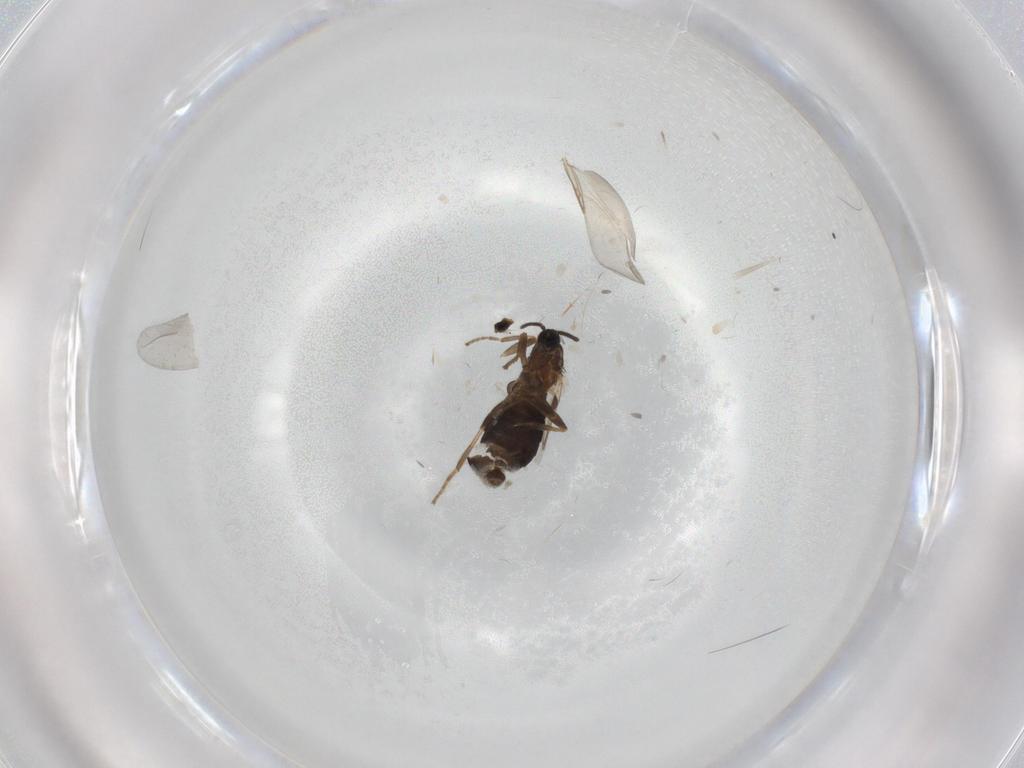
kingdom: Animalia
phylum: Arthropoda
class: Insecta
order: Diptera
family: Scatopsidae
